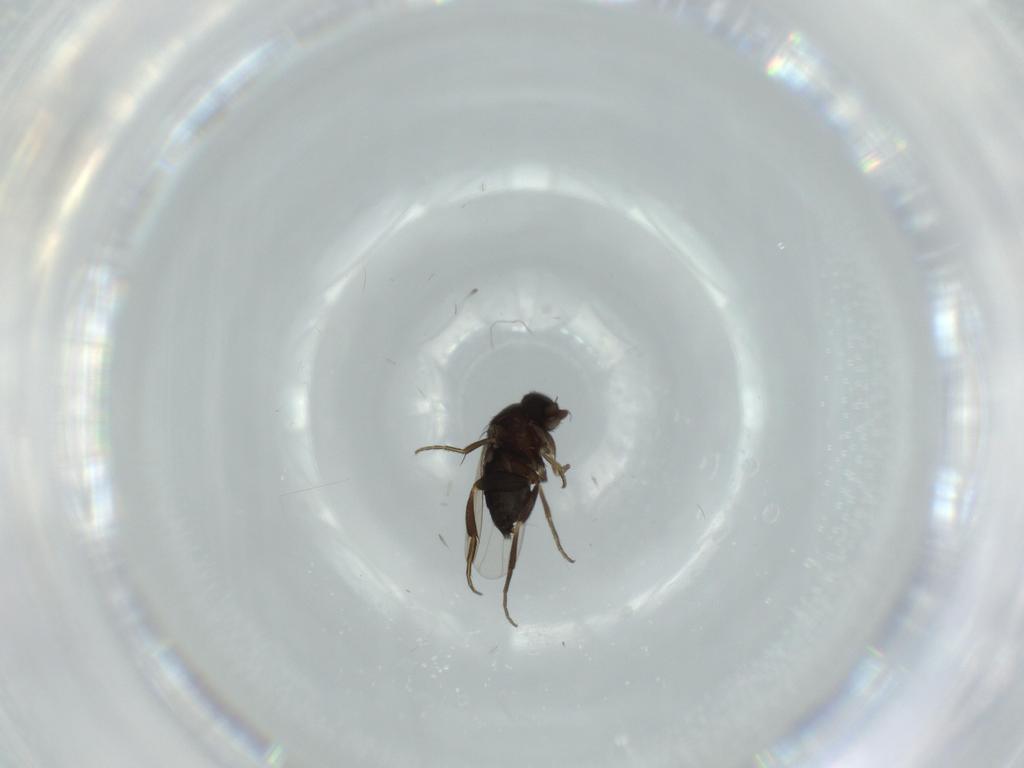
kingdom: Animalia
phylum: Arthropoda
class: Insecta
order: Diptera
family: Phoridae
